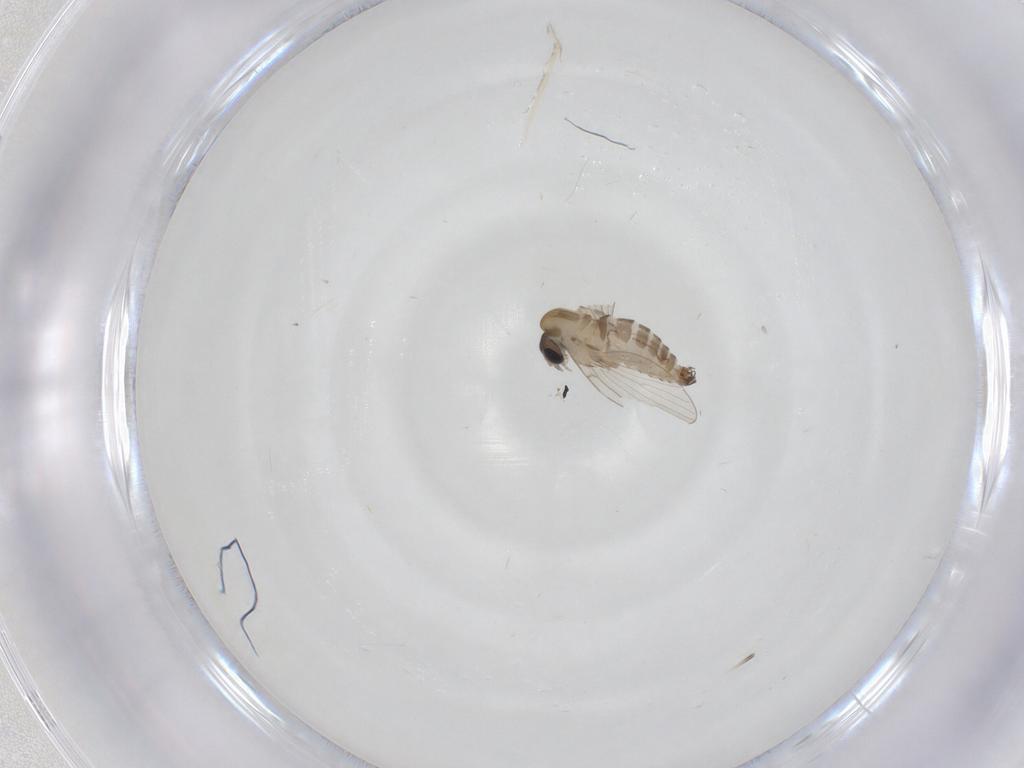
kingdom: Animalia
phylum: Arthropoda
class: Insecta
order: Diptera
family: Psychodidae
